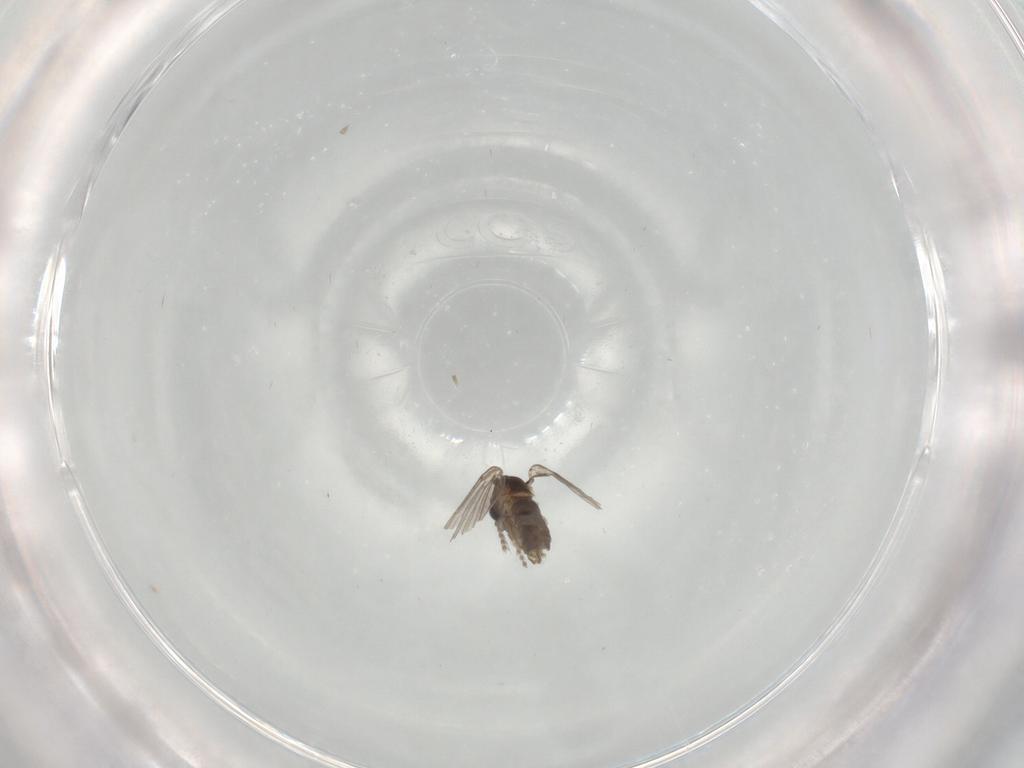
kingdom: Animalia
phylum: Arthropoda
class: Insecta
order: Diptera
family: Psychodidae
